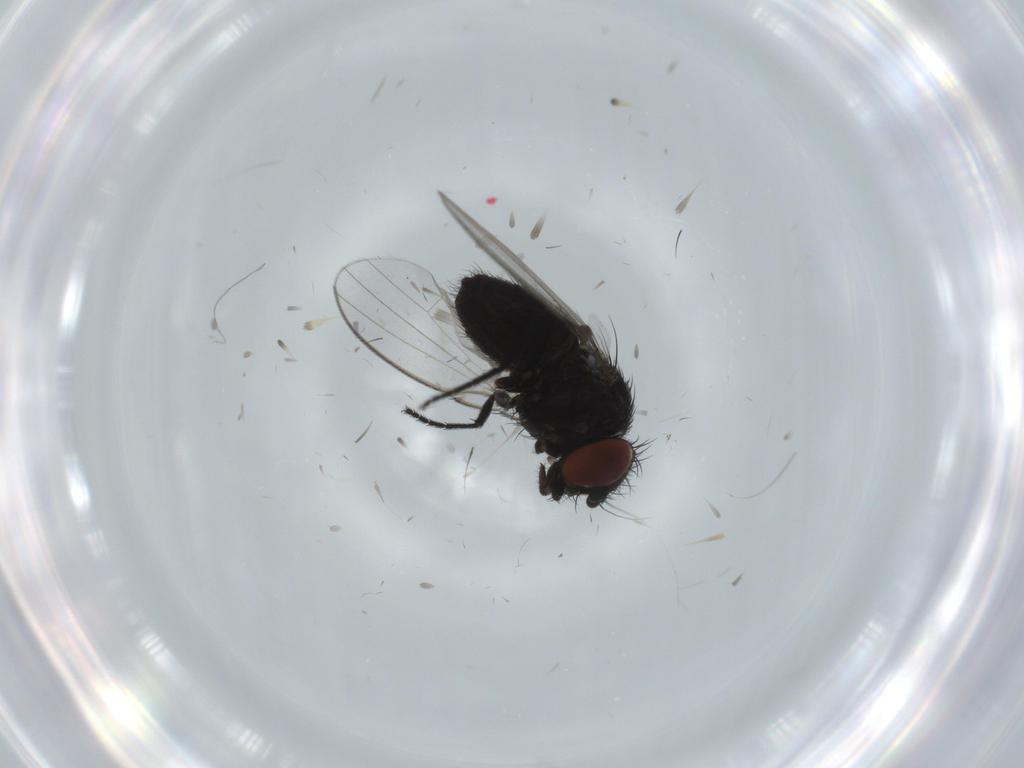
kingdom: Animalia
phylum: Arthropoda
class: Insecta
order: Diptera
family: Milichiidae
